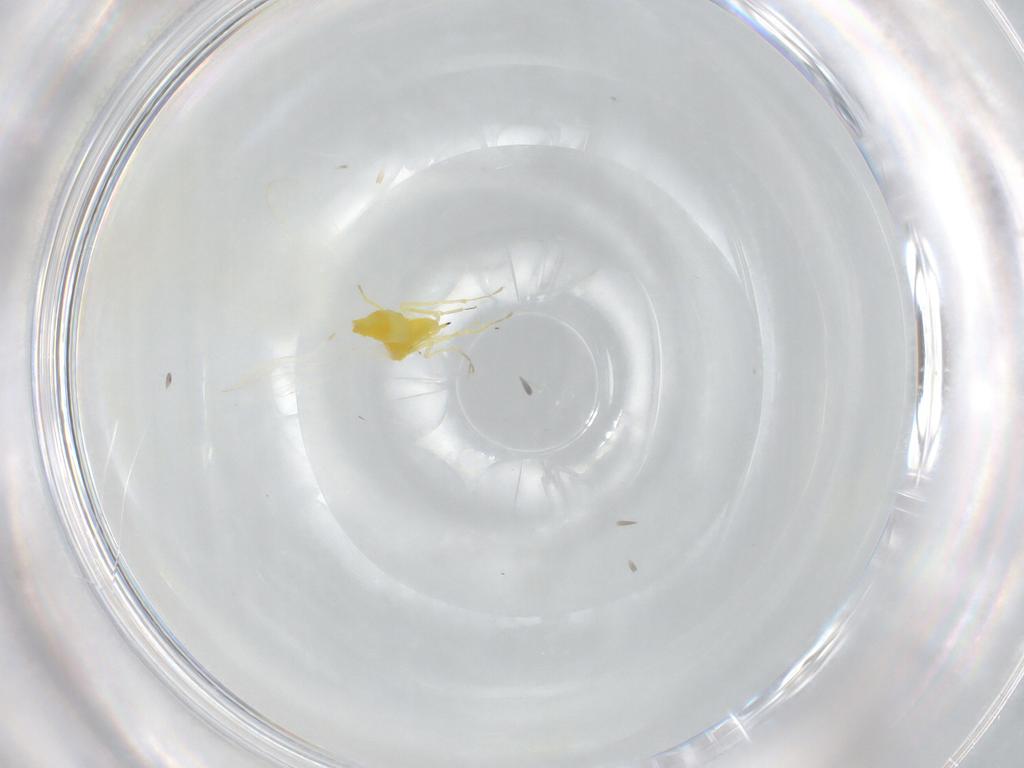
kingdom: Animalia
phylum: Arthropoda
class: Insecta
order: Hemiptera
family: Aleyrodidae
